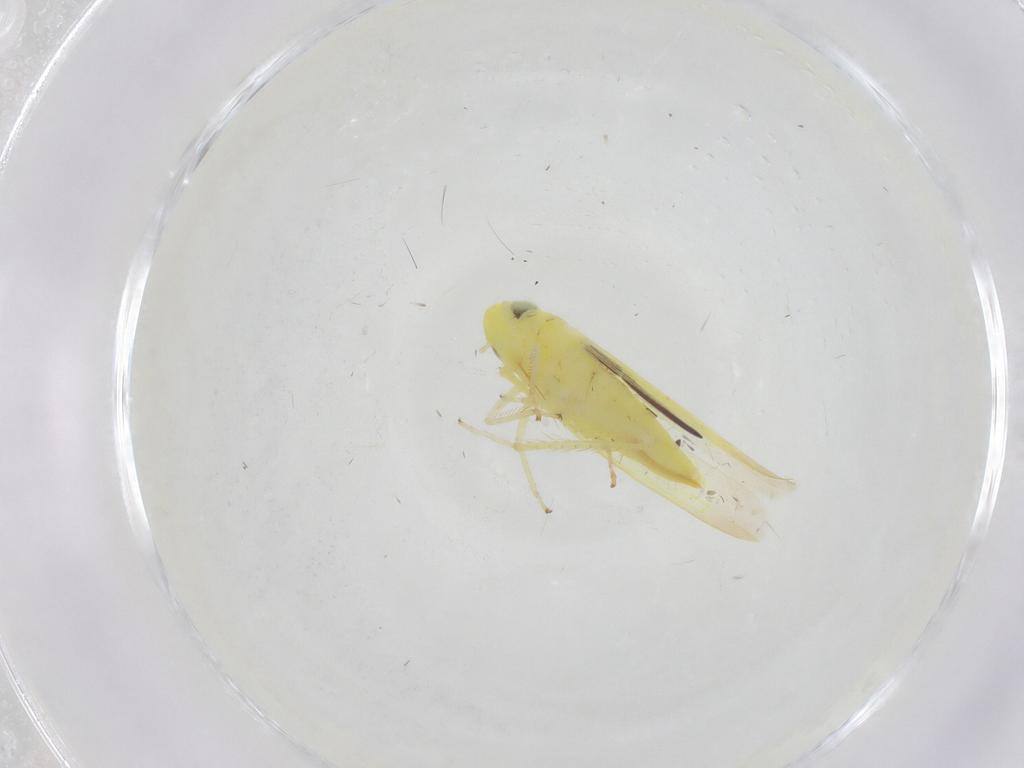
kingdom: Animalia
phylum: Arthropoda
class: Insecta
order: Hemiptera
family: Cicadellidae
